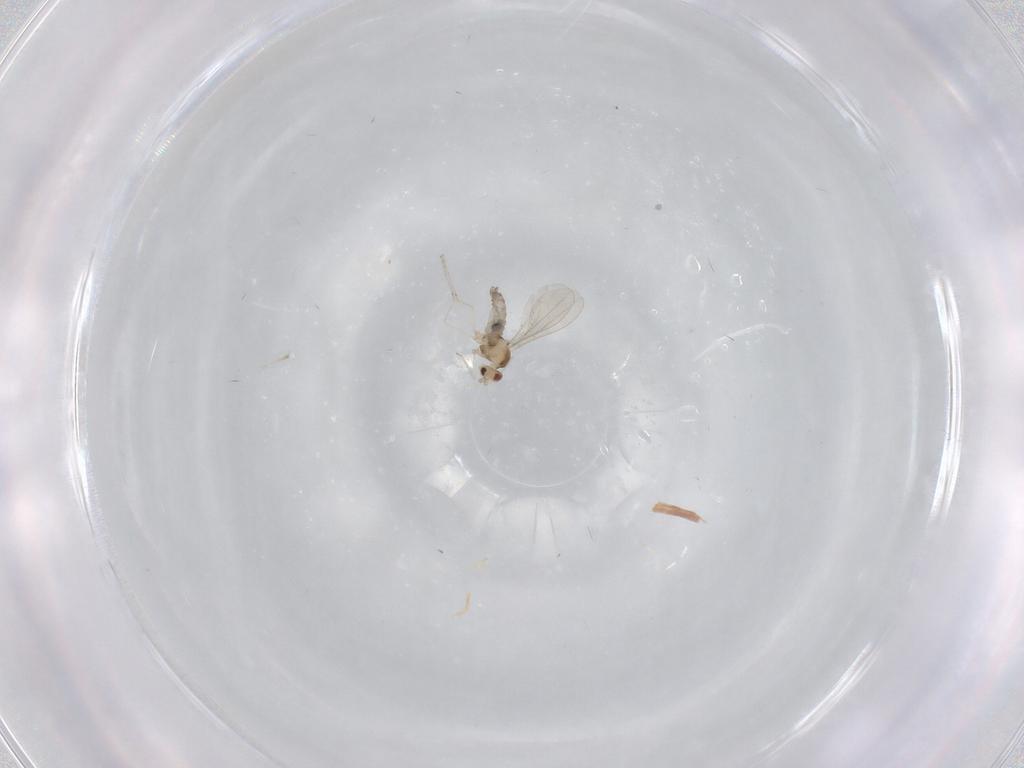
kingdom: Animalia
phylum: Arthropoda
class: Insecta
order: Diptera
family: Cecidomyiidae
